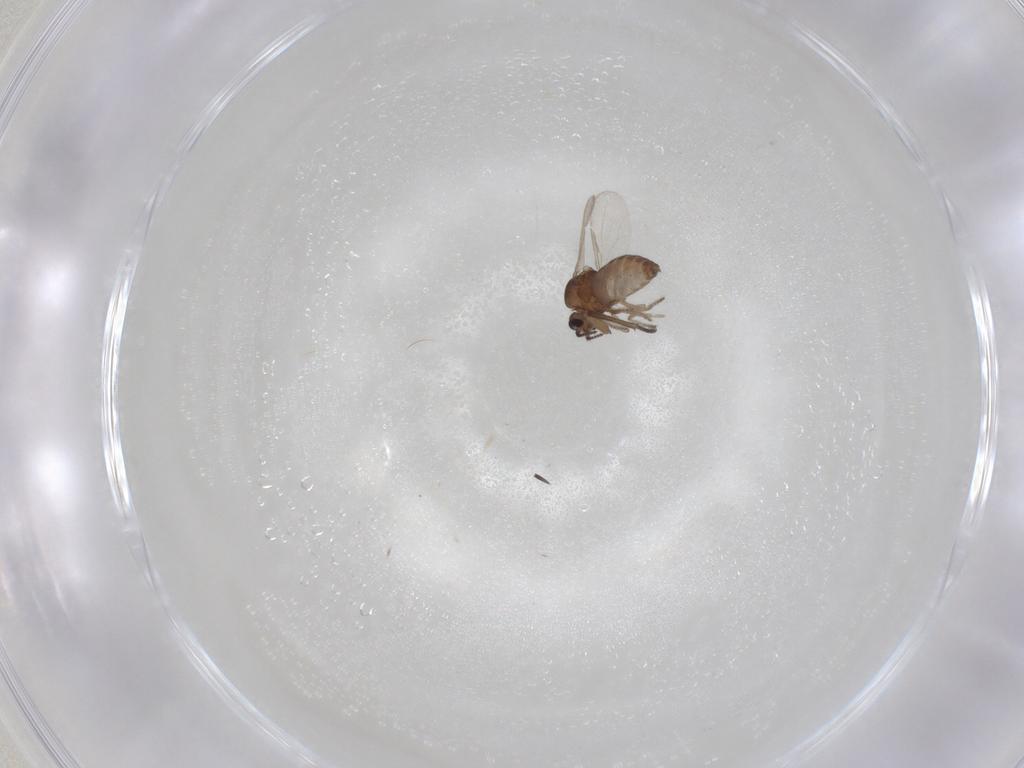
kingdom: Animalia
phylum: Arthropoda
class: Insecta
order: Diptera
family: Ceratopogonidae
